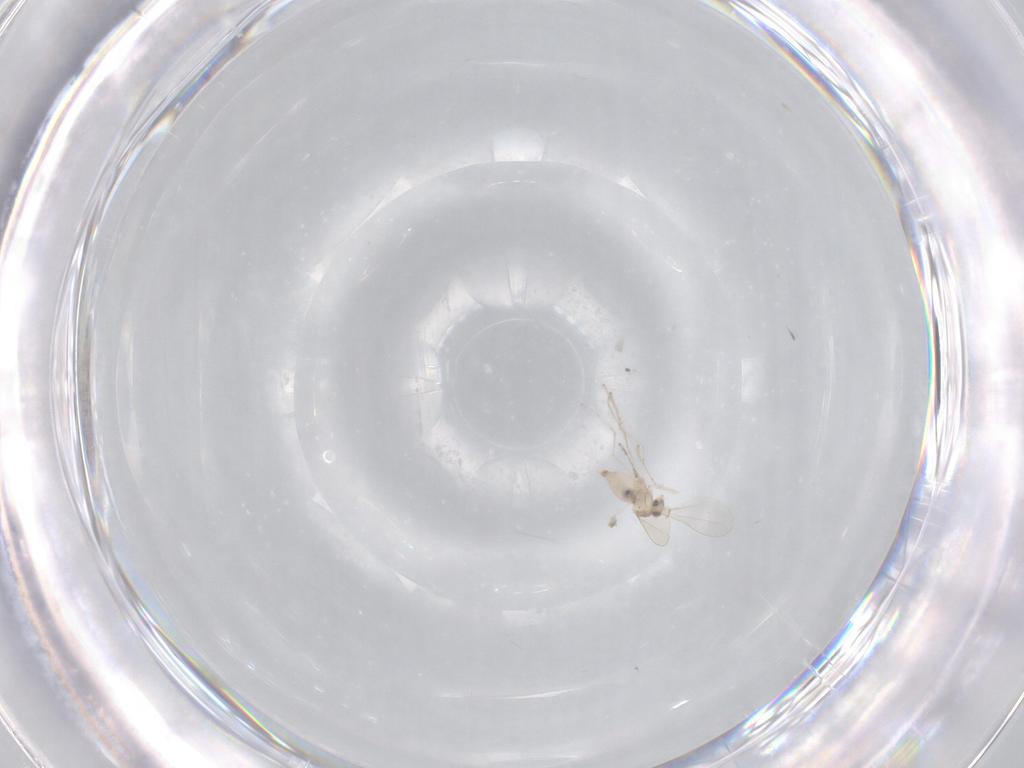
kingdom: Animalia
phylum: Arthropoda
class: Insecta
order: Diptera
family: Cecidomyiidae
